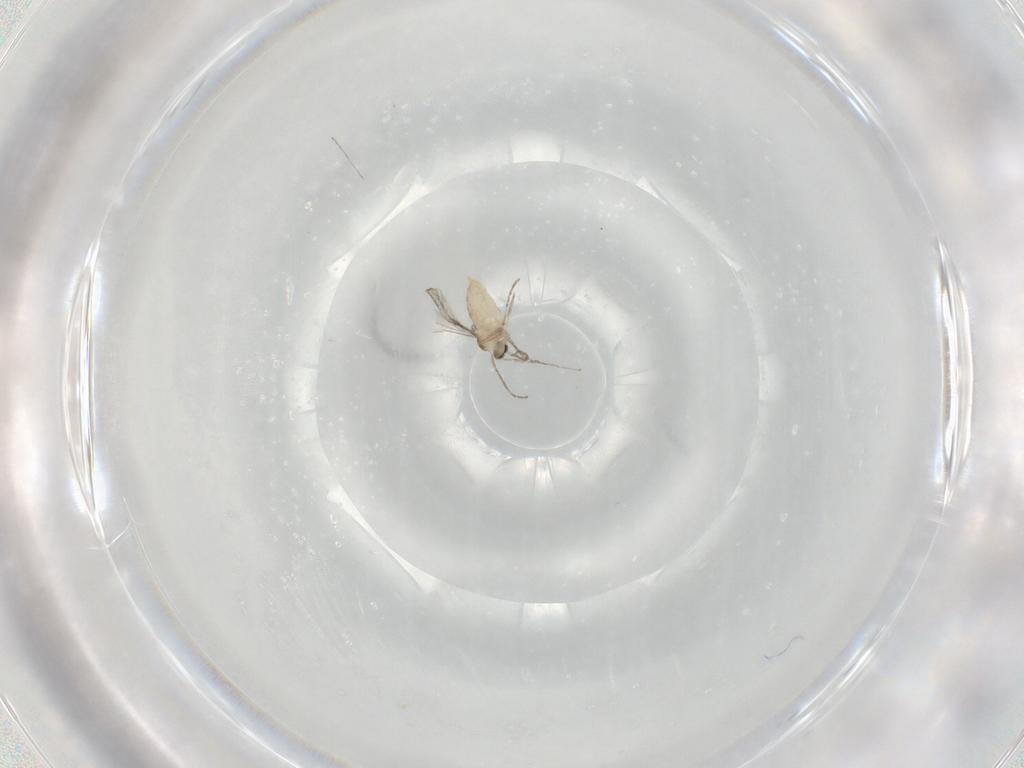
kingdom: Animalia
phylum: Arthropoda
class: Insecta
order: Diptera
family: Cecidomyiidae
